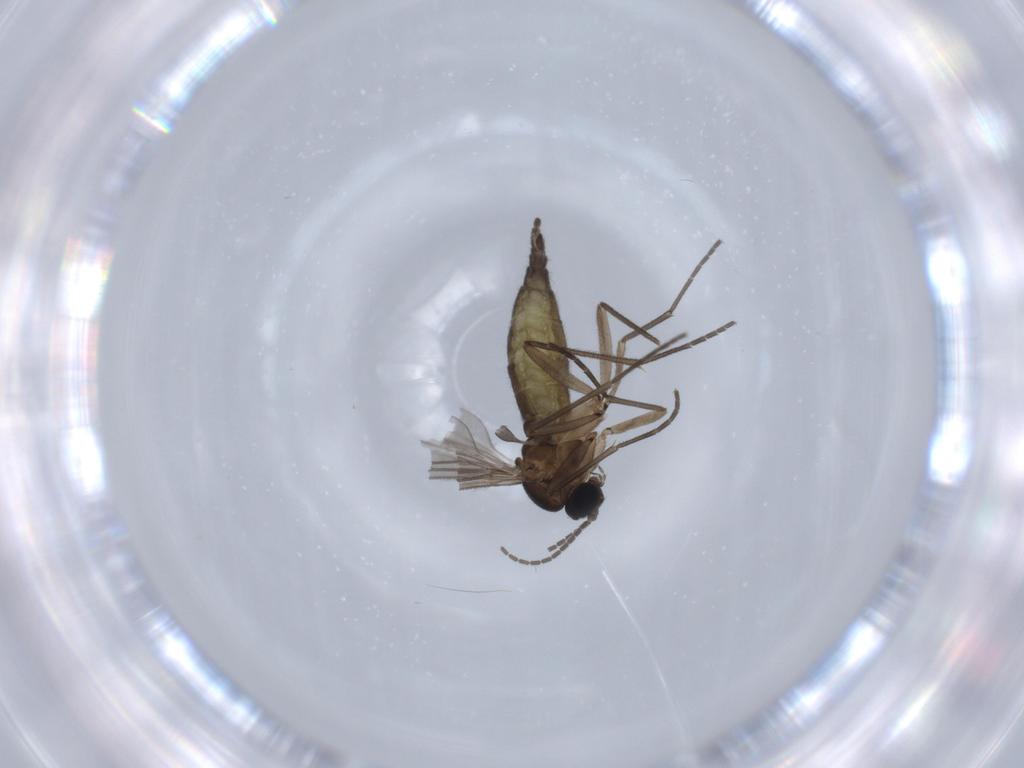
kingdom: Animalia
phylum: Arthropoda
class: Insecta
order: Diptera
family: Sciaridae
